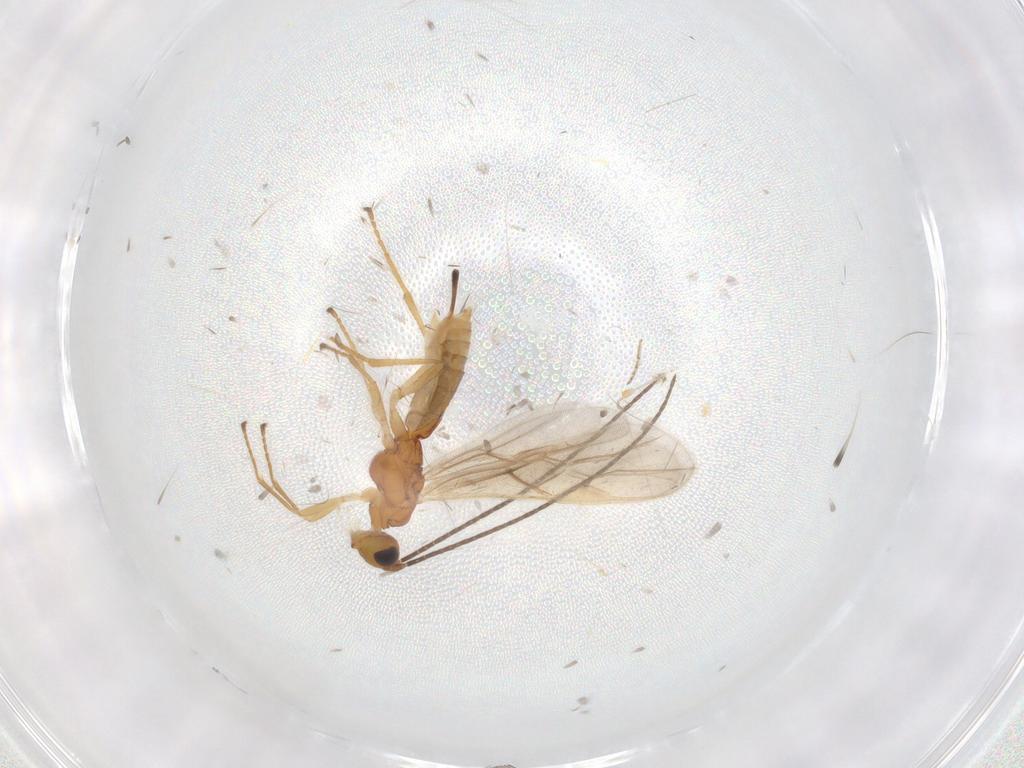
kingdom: Animalia
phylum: Arthropoda
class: Insecta
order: Hymenoptera
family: Braconidae
